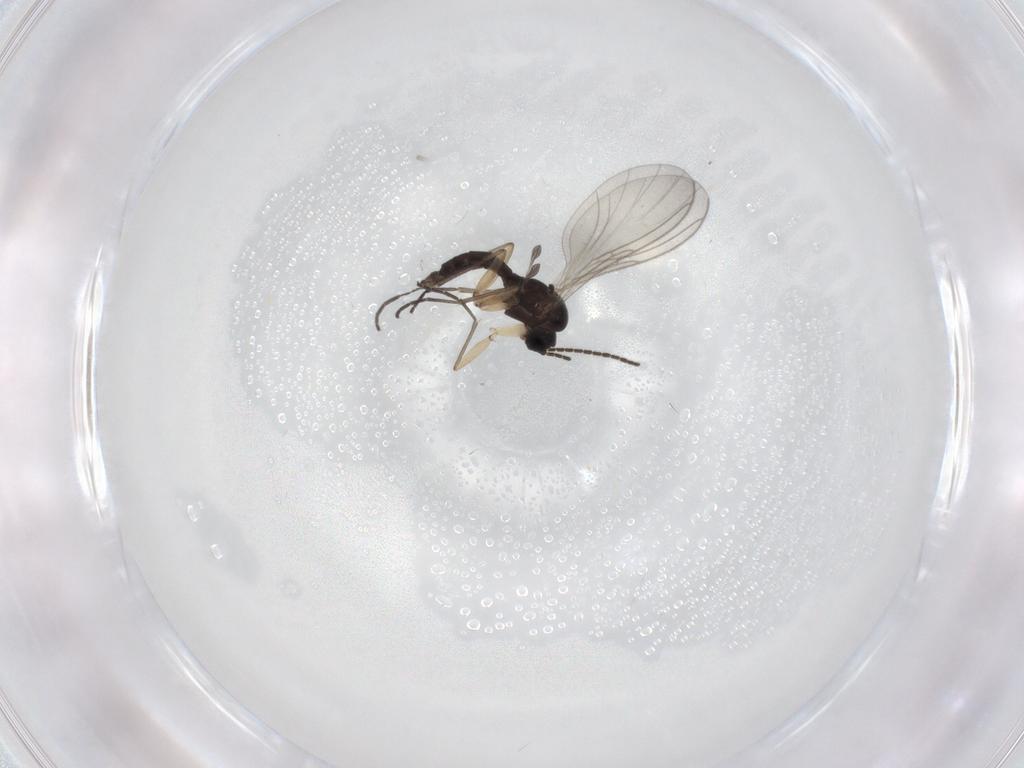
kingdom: Animalia
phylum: Arthropoda
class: Insecta
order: Diptera
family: Sciaridae
